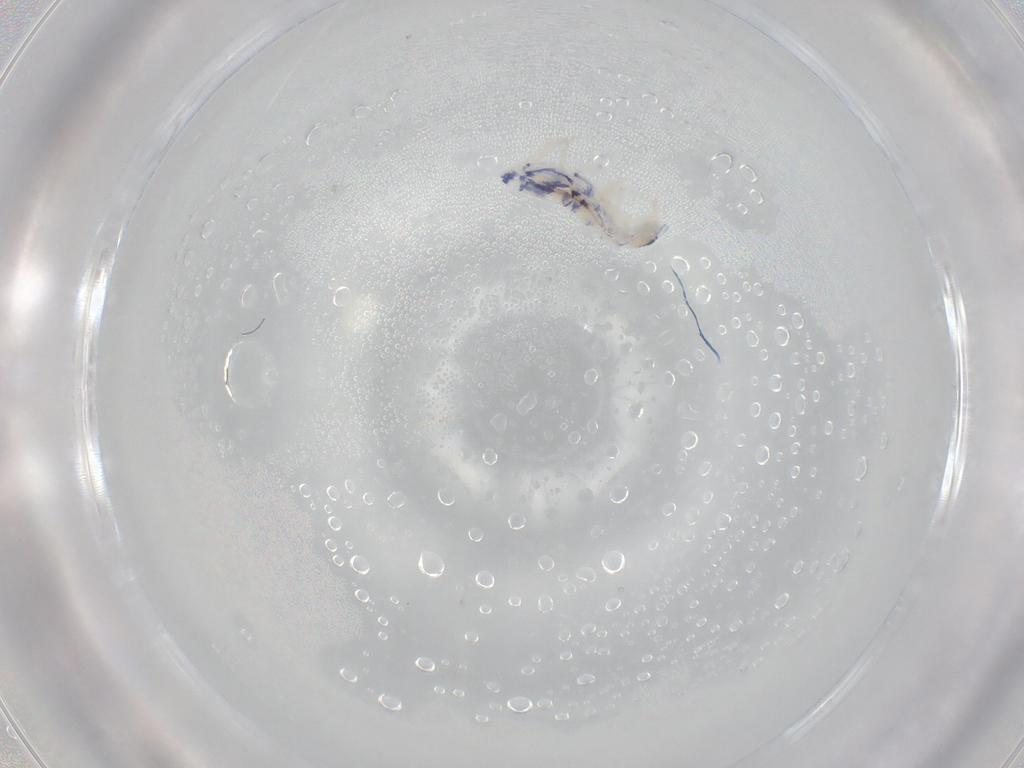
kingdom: Animalia
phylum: Arthropoda
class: Collembola
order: Entomobryomorpha
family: Entomobryidae
